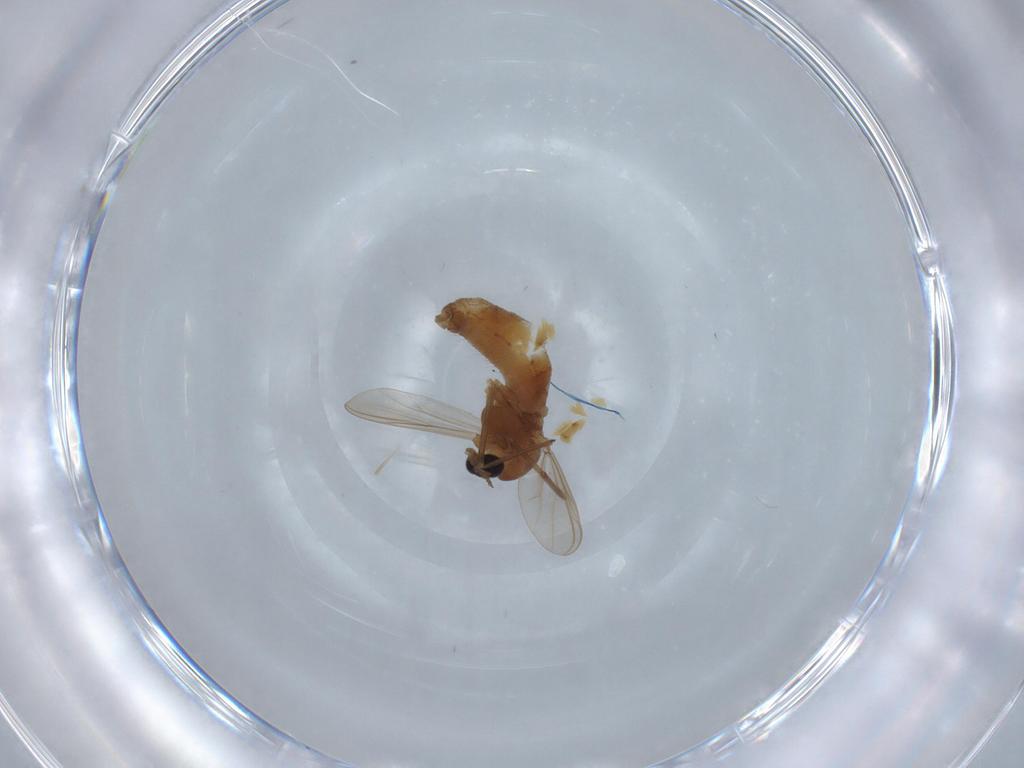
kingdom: Animalia
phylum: Arthropoda
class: Insecta
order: Diptera
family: Chironomidae
